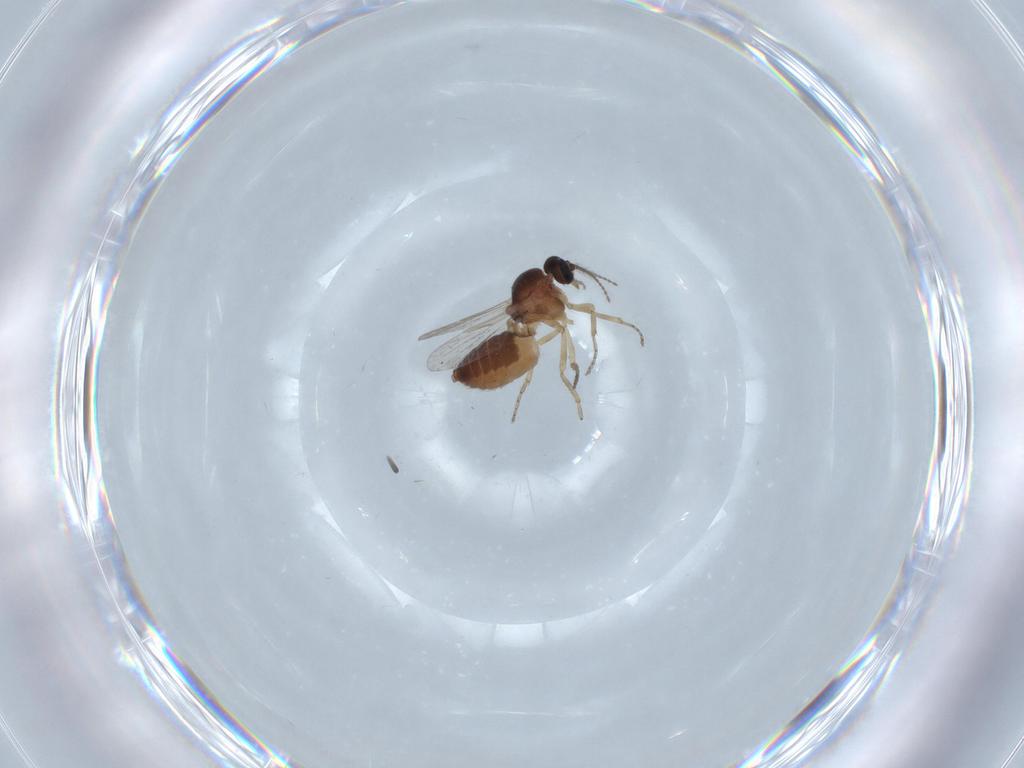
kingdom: Animalia
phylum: Arthropoda
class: Insecta
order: Diptera
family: Ceratopogonidae
